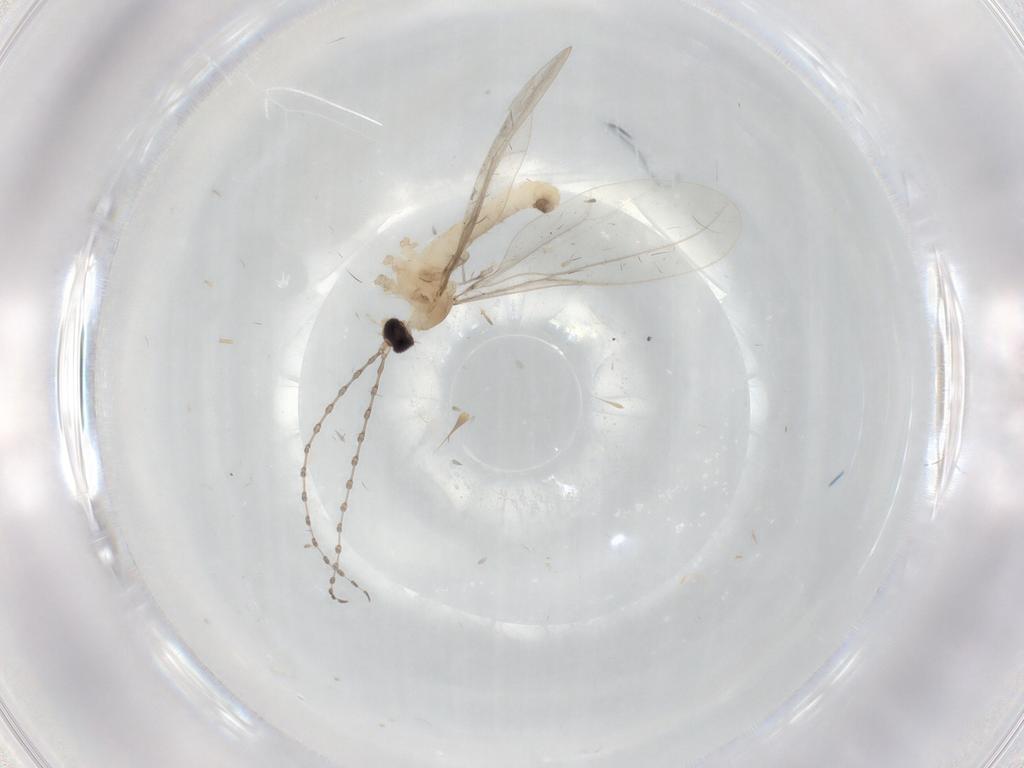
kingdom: Animalia
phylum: Arthropoda
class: Insecta
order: Diptera
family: Cecidomyiidae
